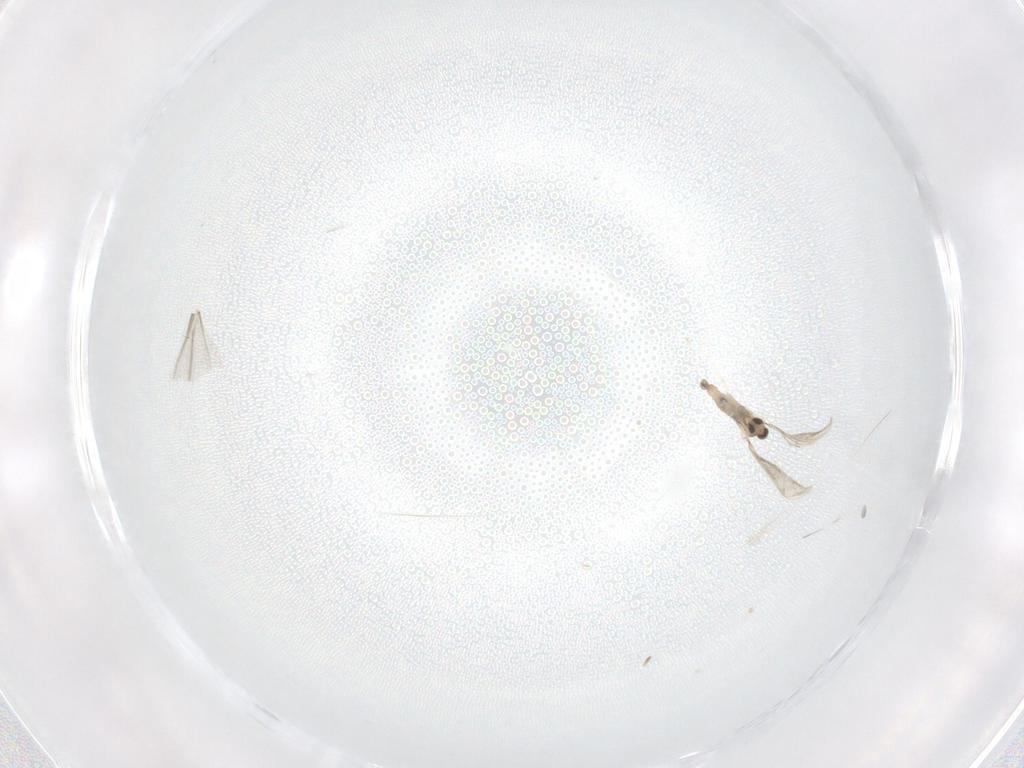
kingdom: Animalia
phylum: Arthropoda
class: Insecta
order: Diptera
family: Cecidomyiidae
